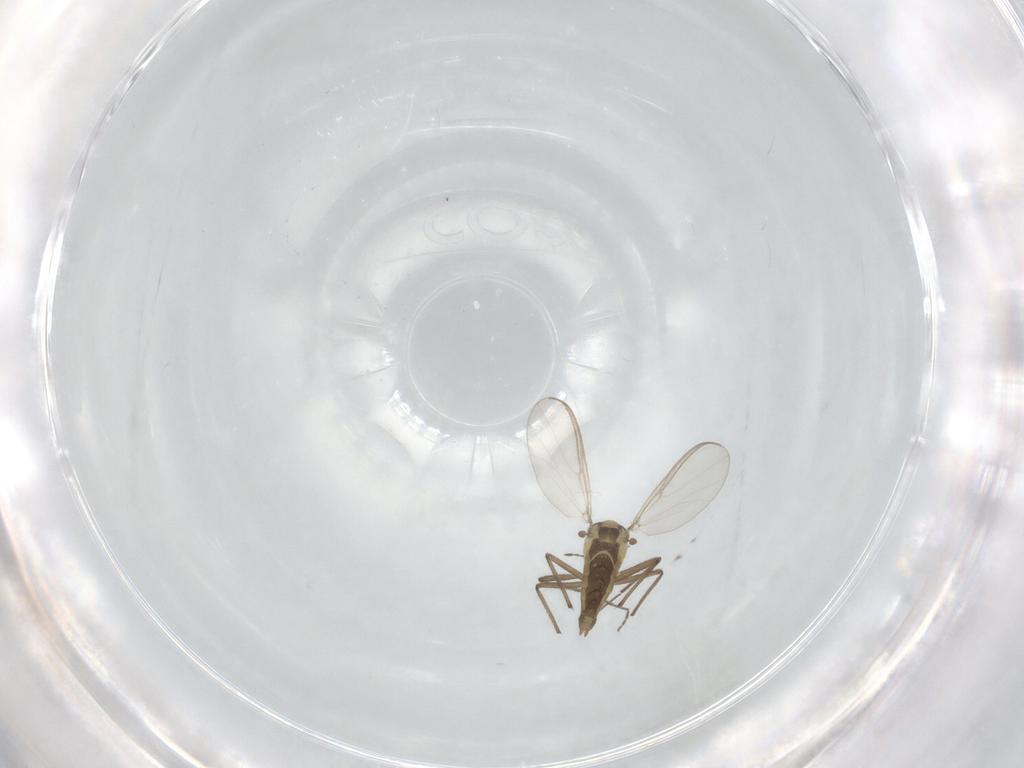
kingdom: Animalia
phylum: Arthropoda
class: Insecta
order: Diptera
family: Chironomidae
